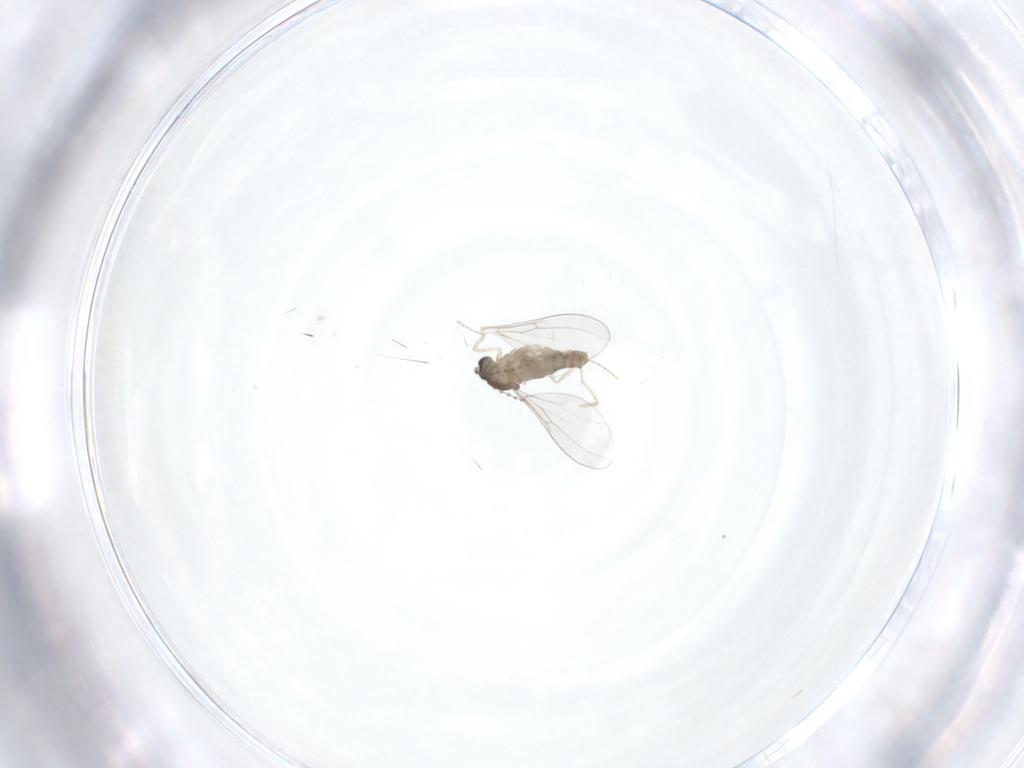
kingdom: Animalia
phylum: Arthropoda
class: Insecta
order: Diptera
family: Cecidomyiidae
